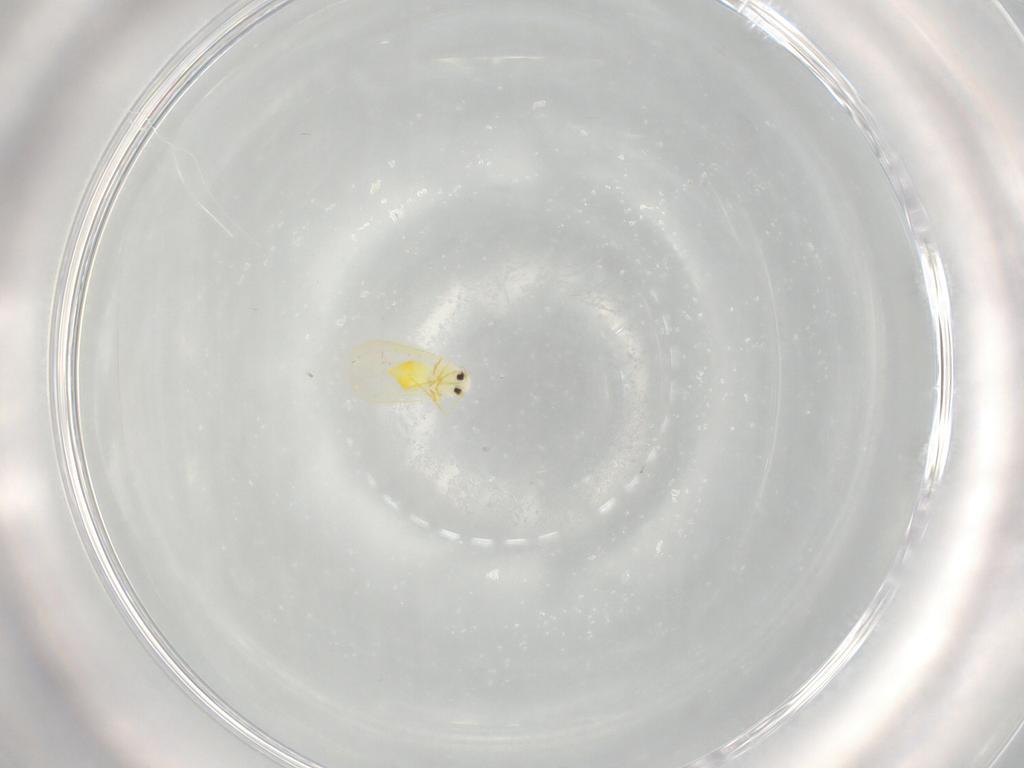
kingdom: Animalia
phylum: Arthropoda
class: Insecta
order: Hemiptera
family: Aleyrodidae
